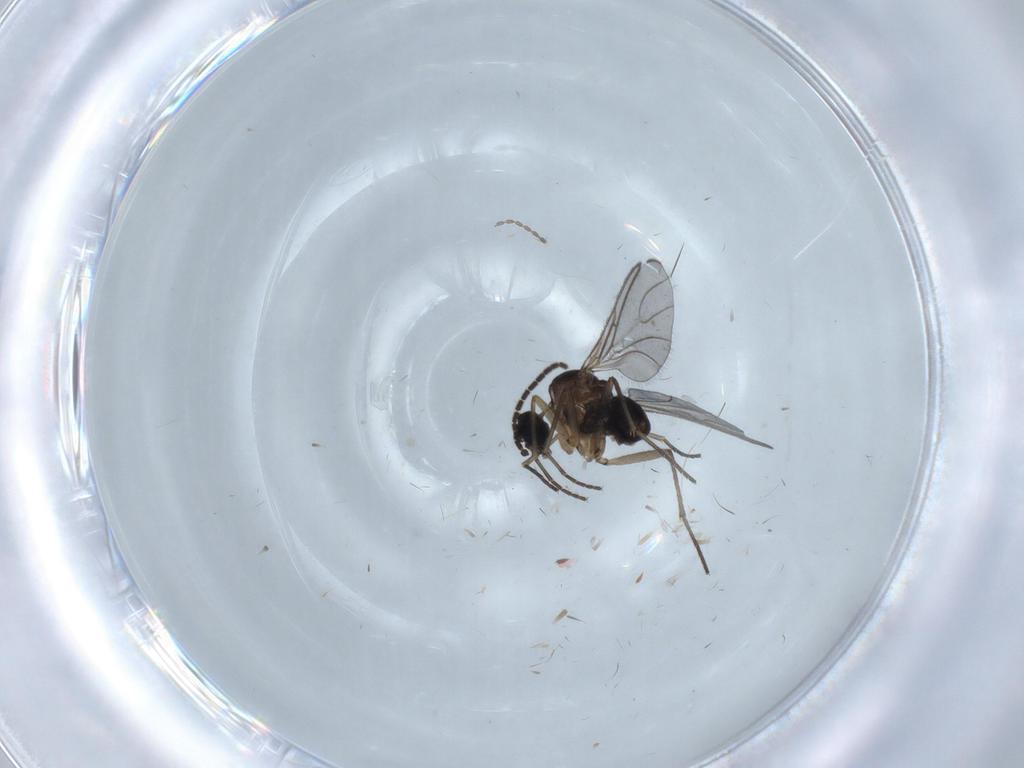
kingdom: Animalia
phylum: Arthropoda
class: Insecta
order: Diptera
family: Sciaridae
